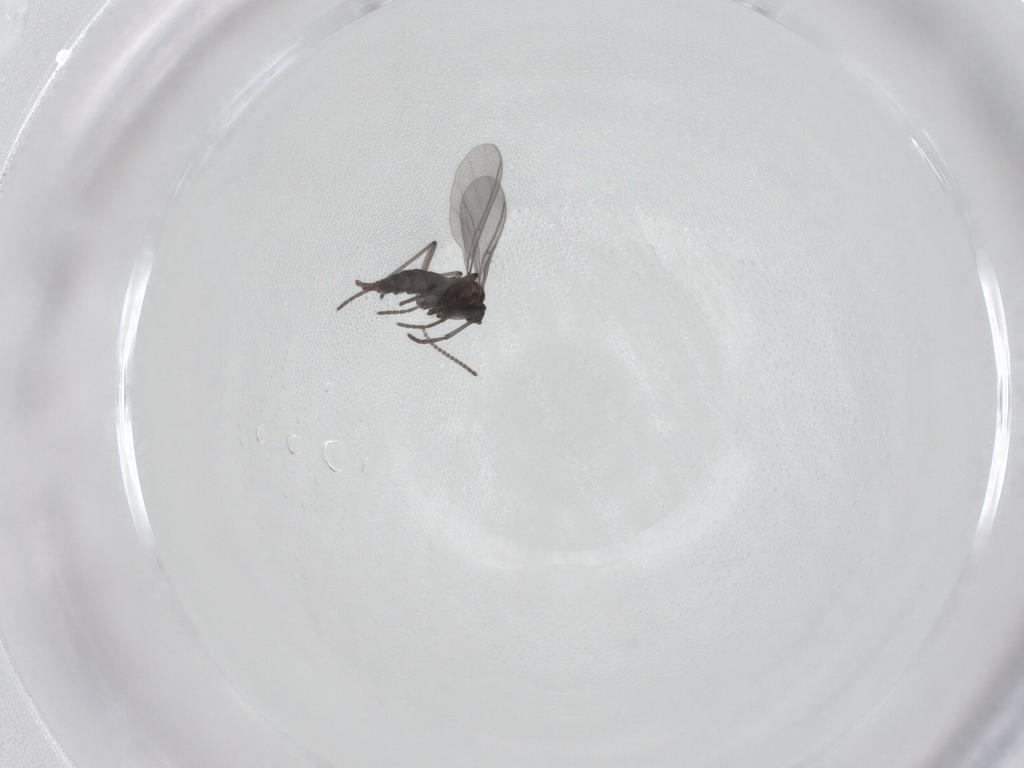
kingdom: Animalia
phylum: Arthropoda
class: Insecta
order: Diptera
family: Sciaridae
